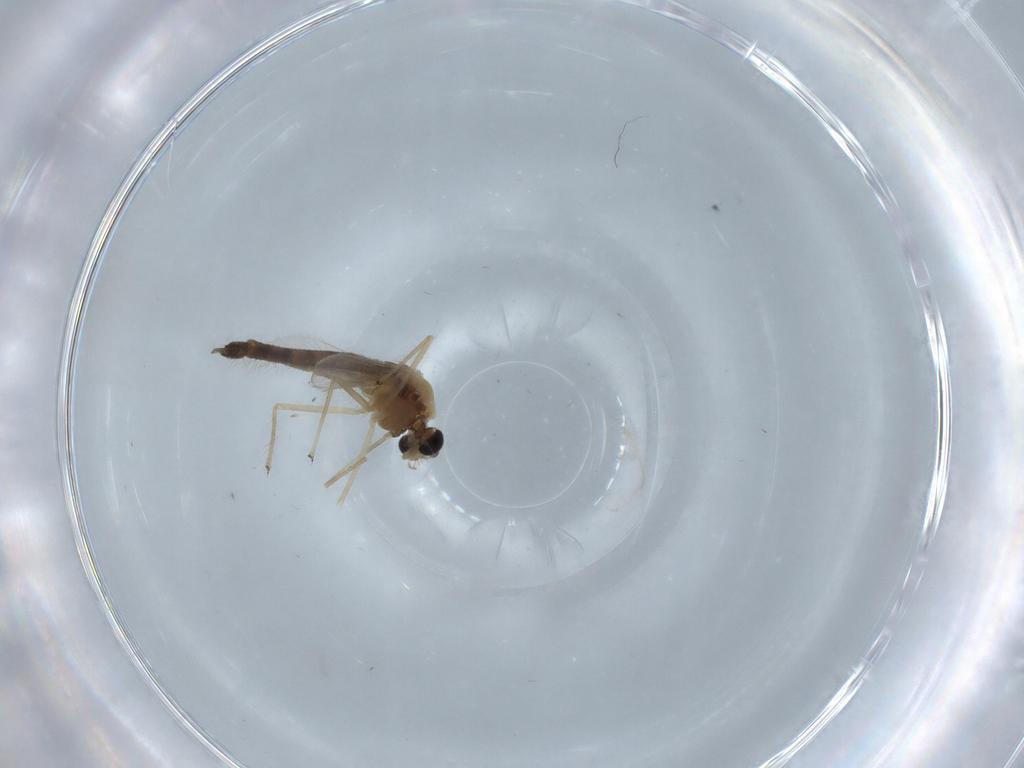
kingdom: Animalia
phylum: Arthropoda
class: Insecta
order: Diptera
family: Chironomidae
